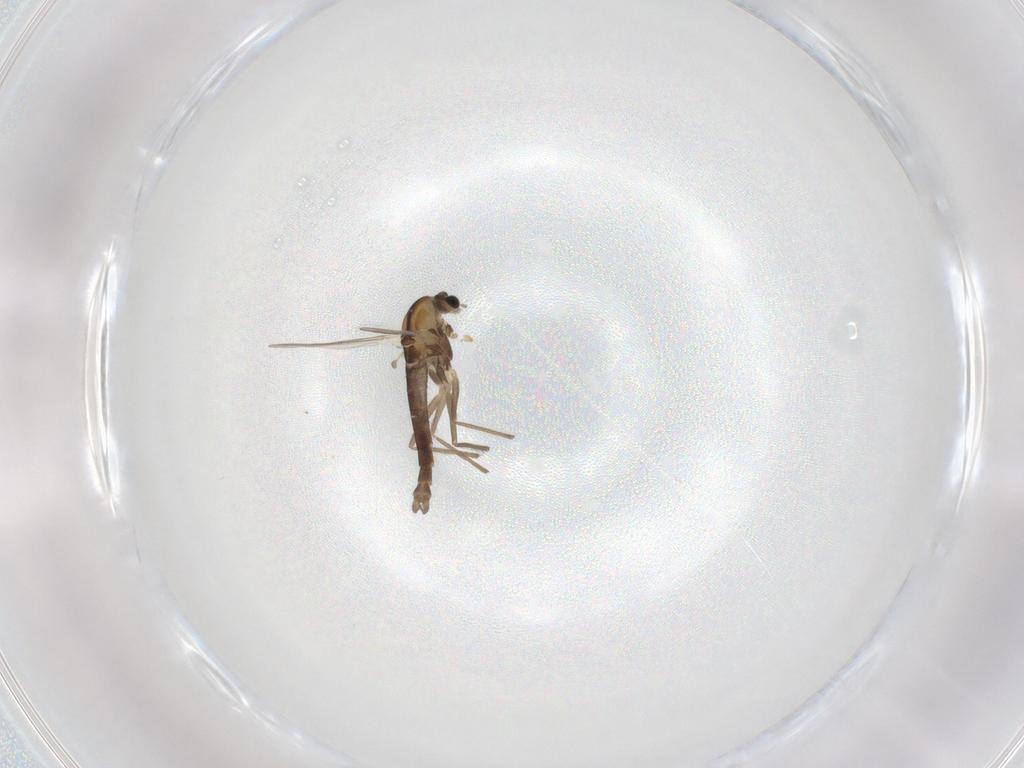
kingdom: Animalia
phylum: Arthropoda
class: Insecta
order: Diptera
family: Chironomidae
